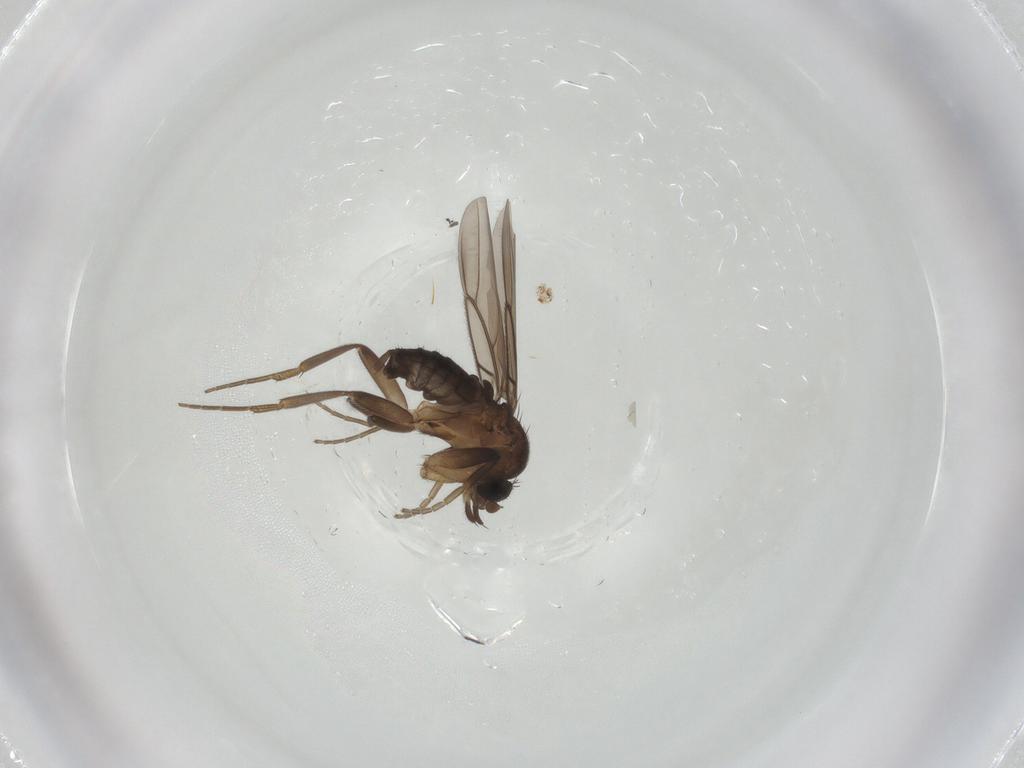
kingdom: Animalia
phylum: Arthropoda
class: Insecta
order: Diptera
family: Phoridae
